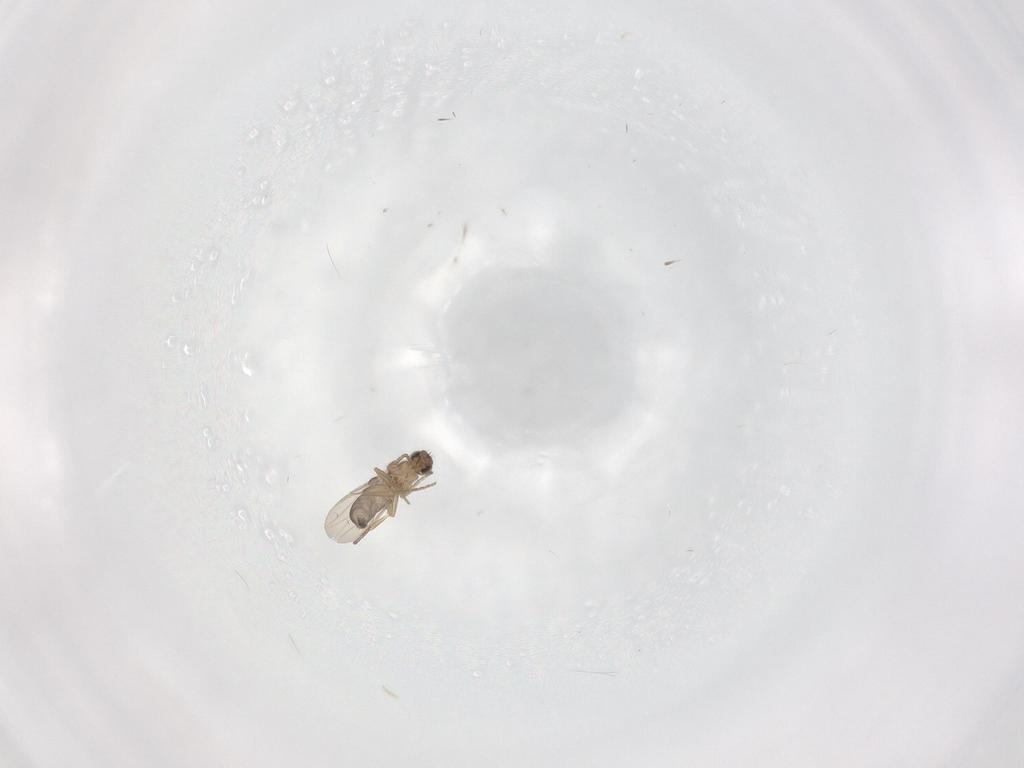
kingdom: Animalia
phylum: Arthropoda
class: Insecta
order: Diptera
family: Phoridae
